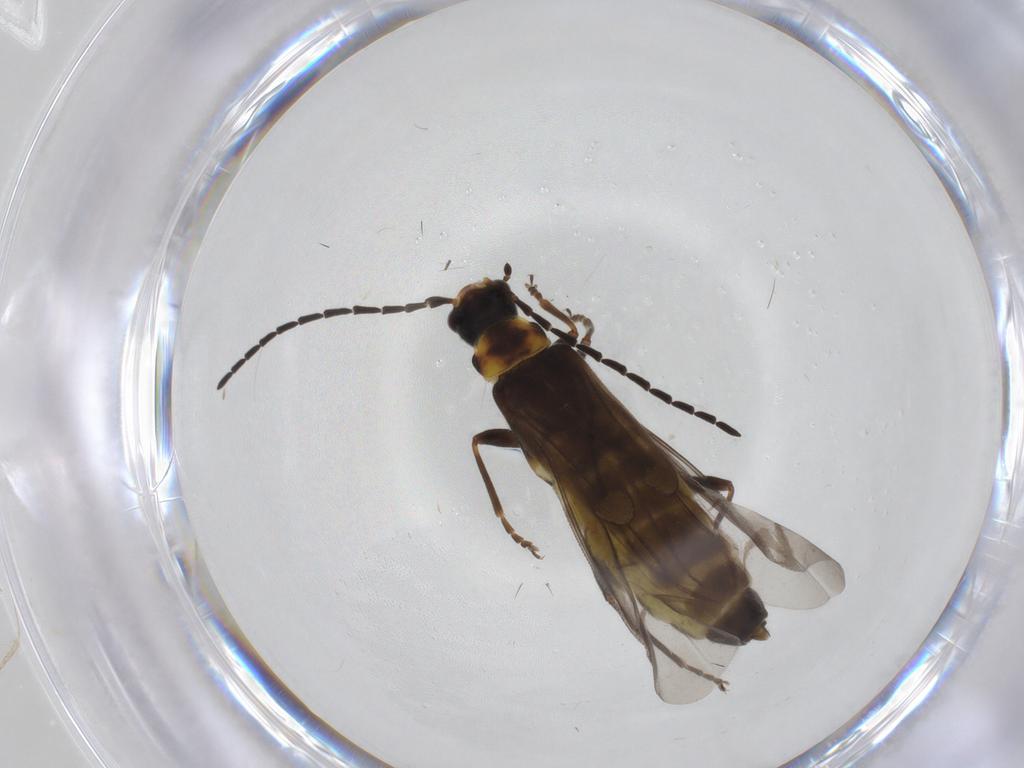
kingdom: Animalia
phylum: Arthropoda
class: Insecta
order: Coleoptera
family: Cantharidae
